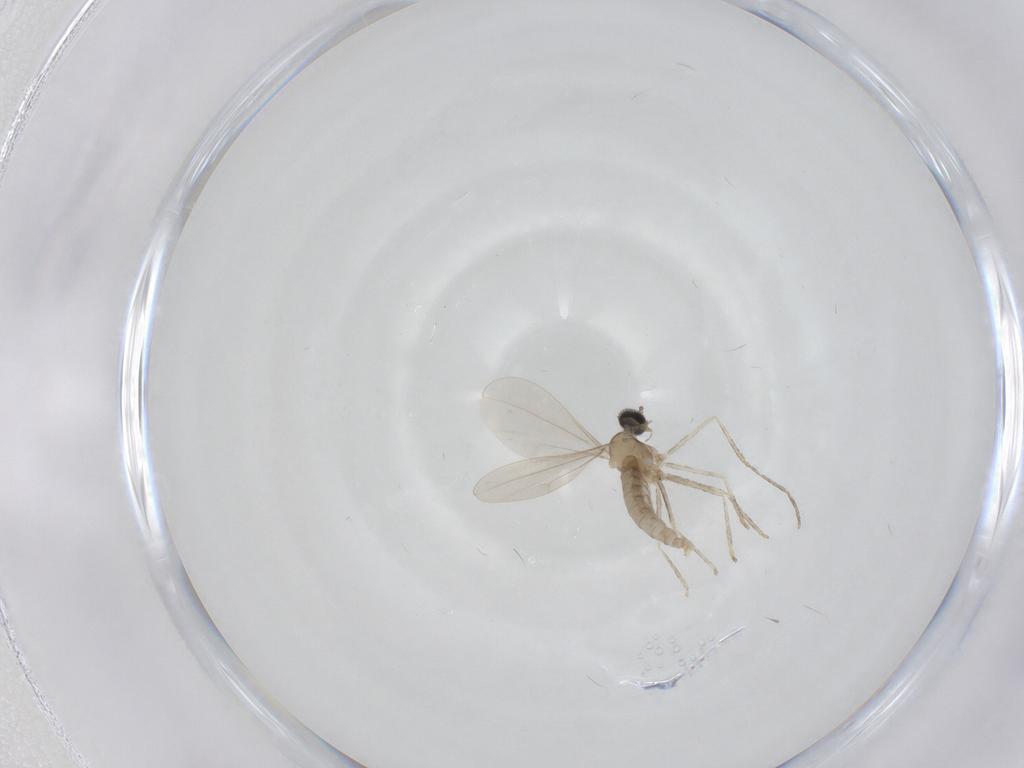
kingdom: Animalia
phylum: Arthropoda
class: Insecta
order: Diptera
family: Cecidomyiidae
